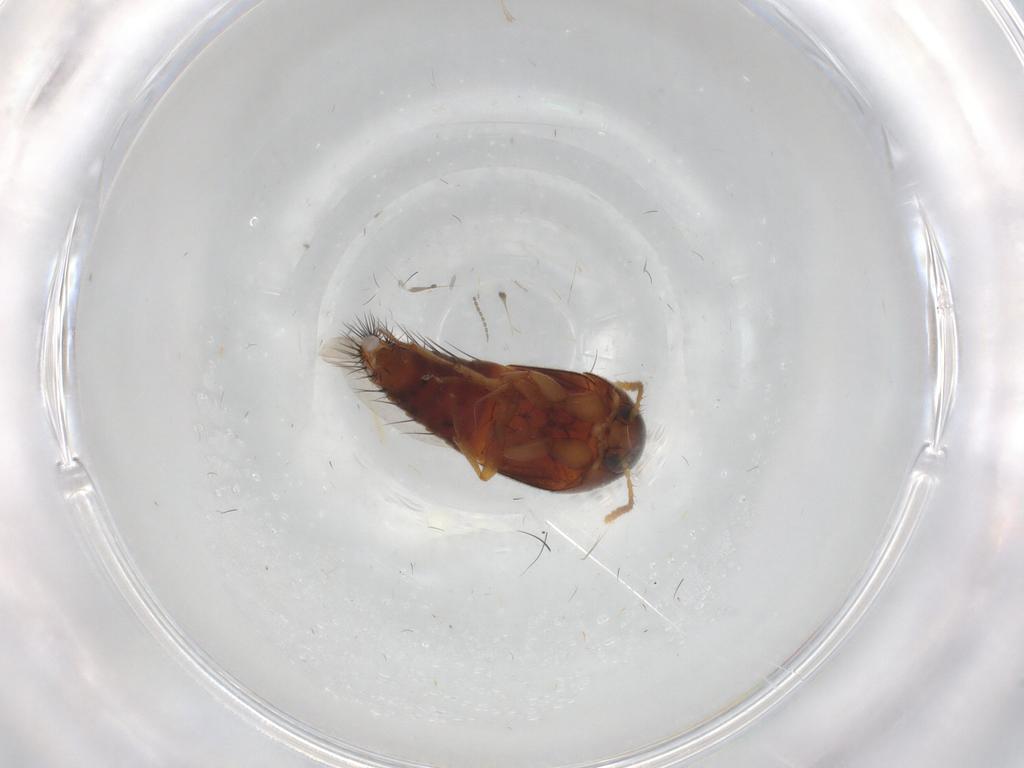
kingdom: Animalia
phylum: Arthropoda
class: Insecta
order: Coleoptera
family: Staphylinidae
